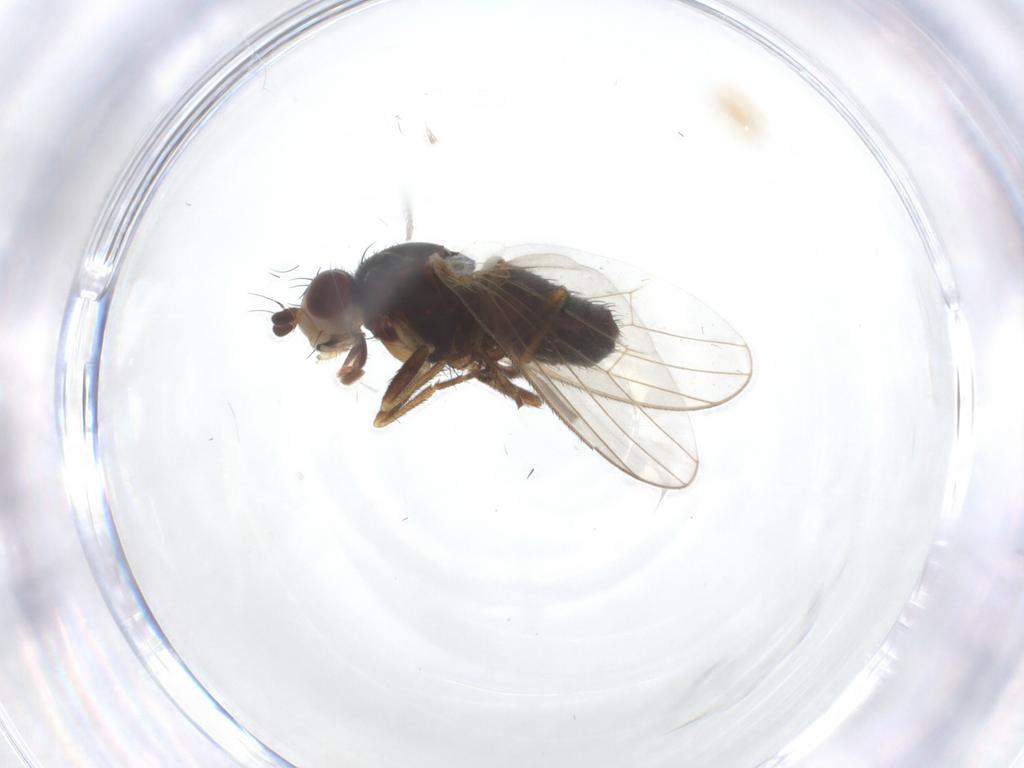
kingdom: Animalia
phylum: Arthropoda
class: Insecta
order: Diptera
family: Heleomyzidae
